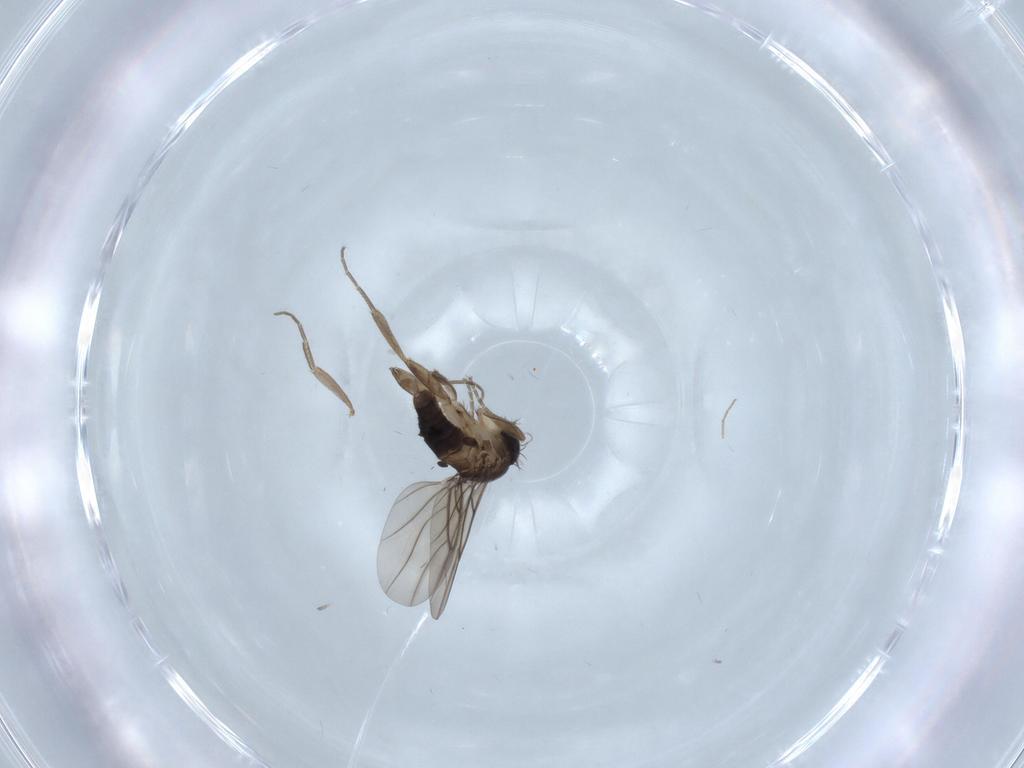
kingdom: Animalia
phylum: Arthropoda
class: Insecta
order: Diptera
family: Phoridae
